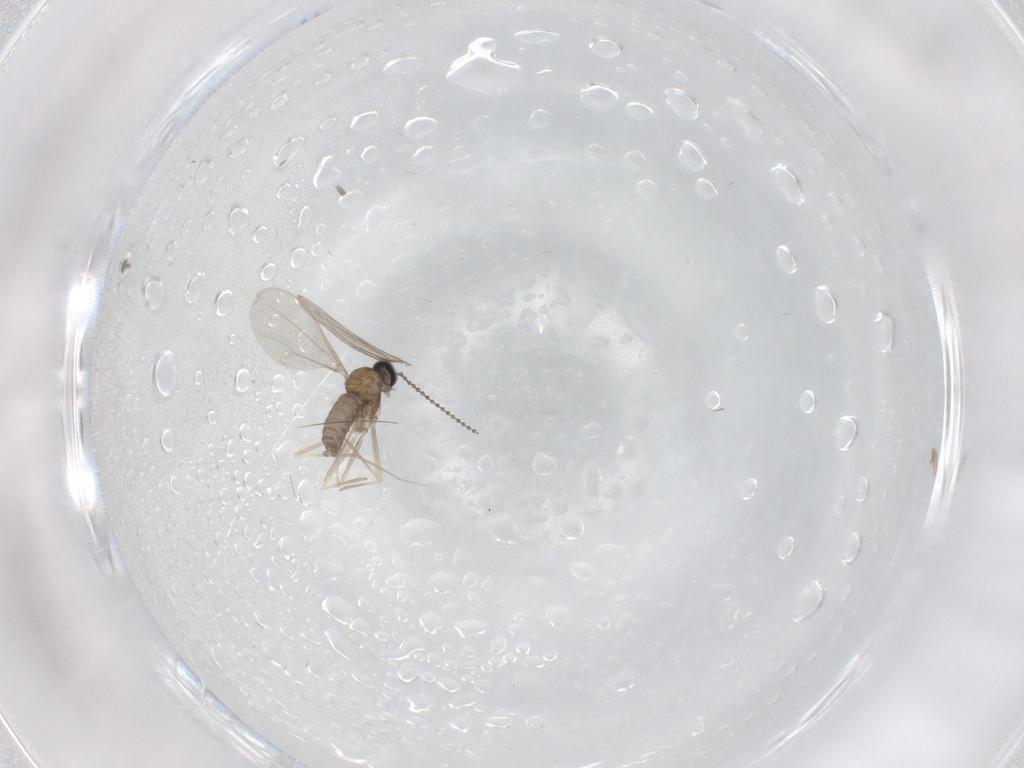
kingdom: Animalia
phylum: Arthropoda
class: Insecta
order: Diptera
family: Cecidomyiidae
